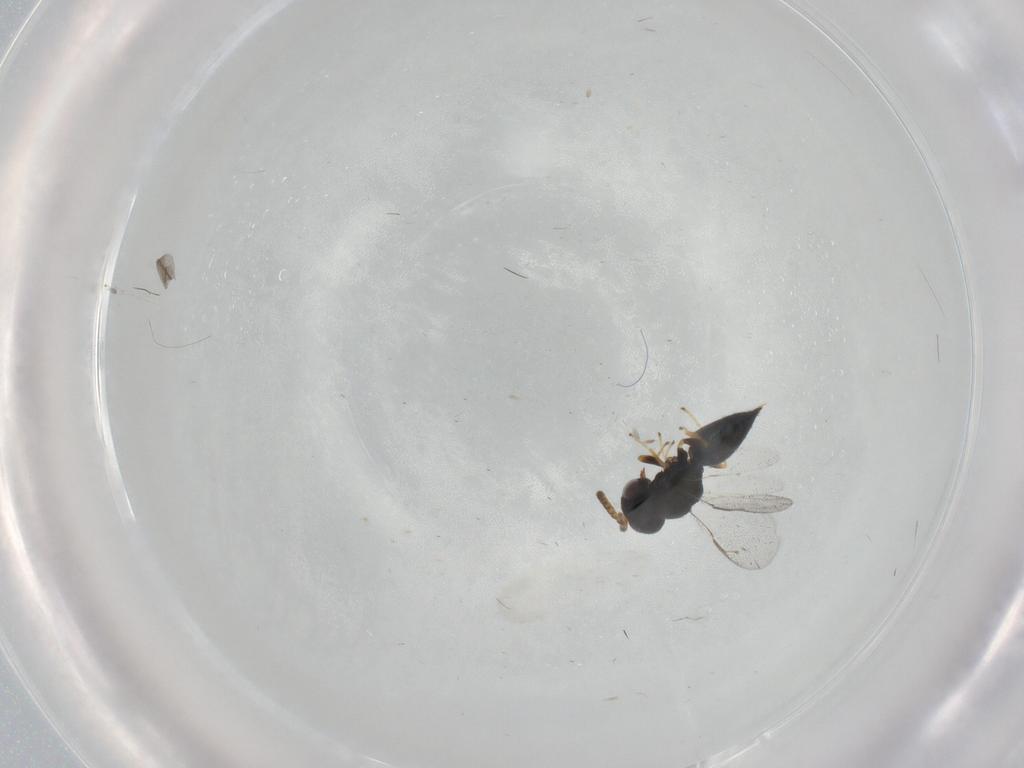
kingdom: Animalia
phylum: Arthropoda
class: Insecta
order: Hymenoptera
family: Pteromalidae
